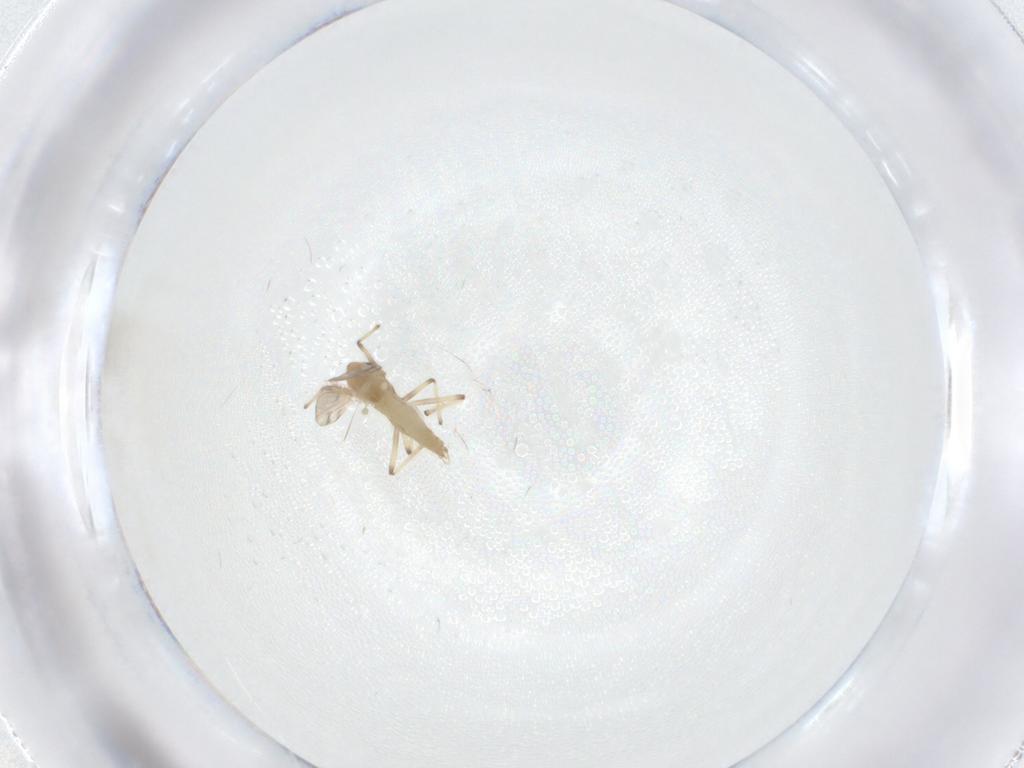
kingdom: Animalia
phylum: Arthropoda
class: Insecta
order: Diptera
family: Chironomidae
